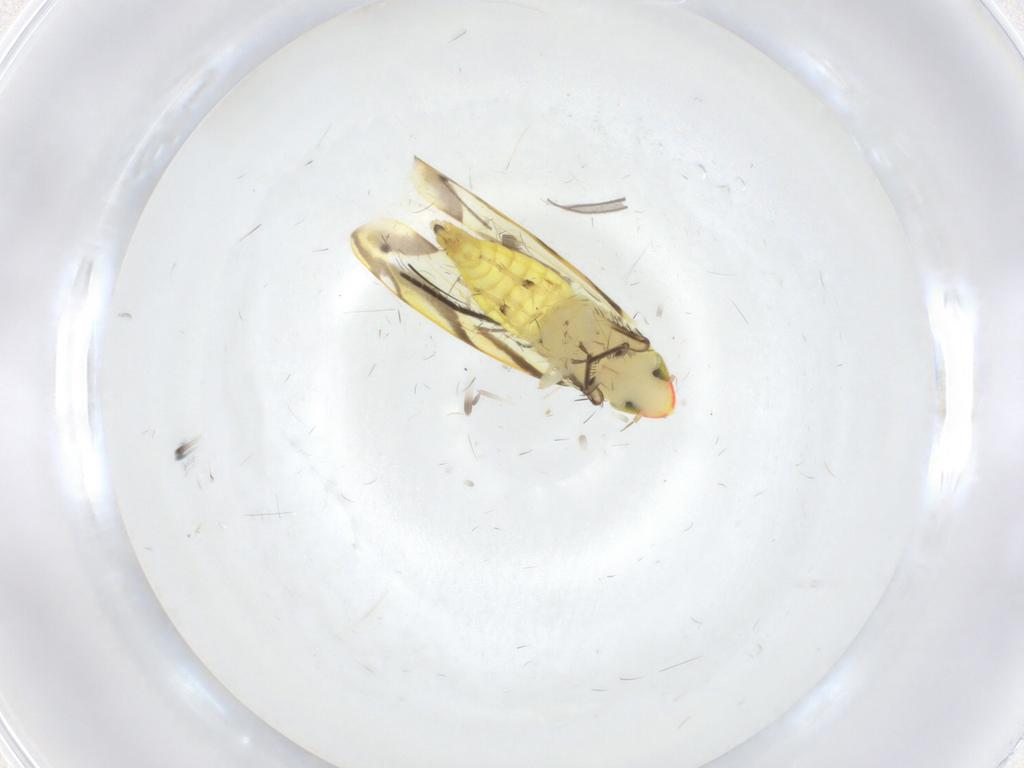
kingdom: Animalia
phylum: Arthropoda
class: Insecta
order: Hemiptera
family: Cicadellidae
